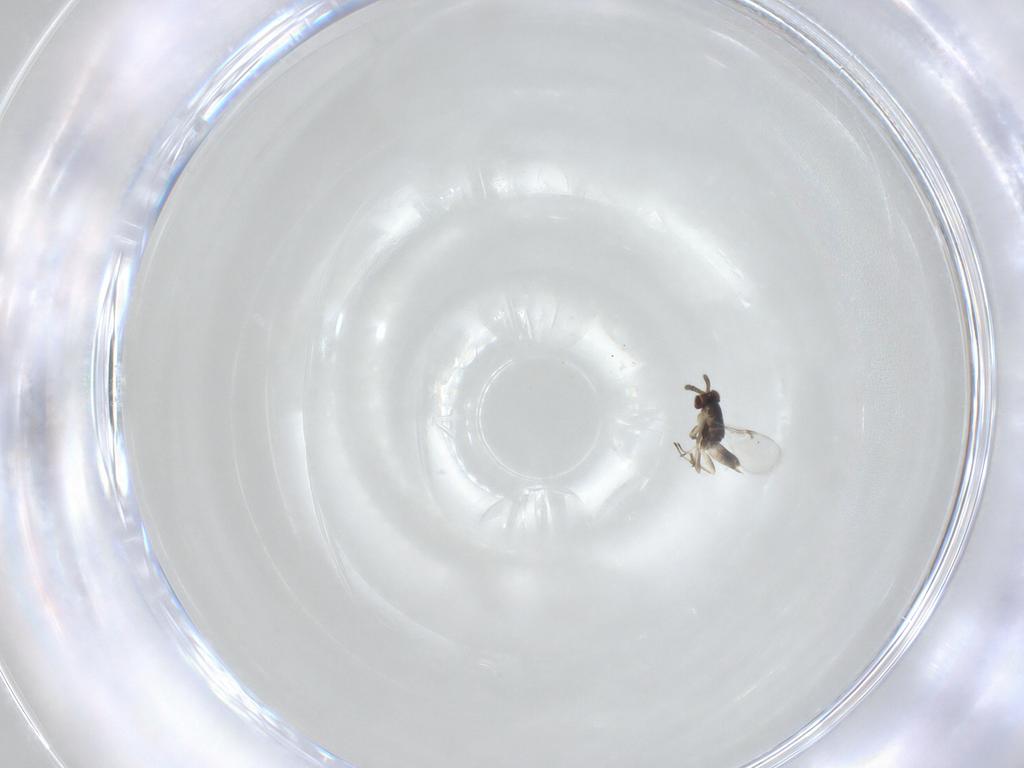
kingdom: Animalia
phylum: Arthropoda
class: Insecta
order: Hymenoptera
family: Encyrtidae
